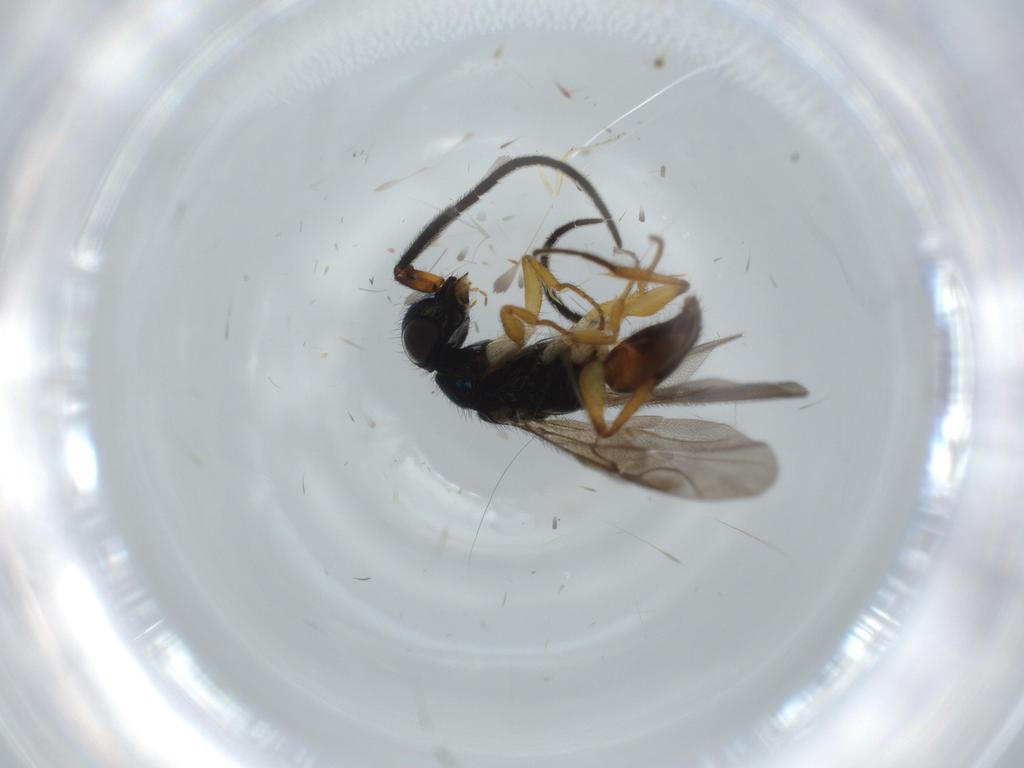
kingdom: Animalia
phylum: Arthropoda
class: Insecta
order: Hymenoptera
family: Chrysididae
